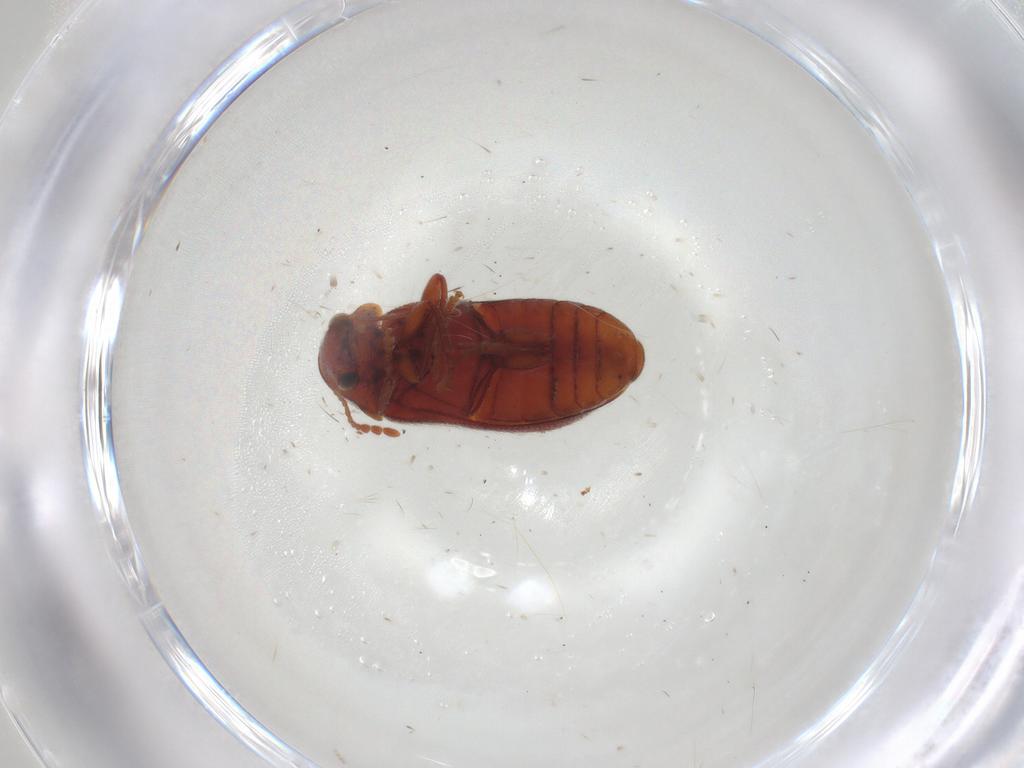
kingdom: Animalia
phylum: Arthropoda
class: Insecta
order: Coleoptera
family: Ptinidae
